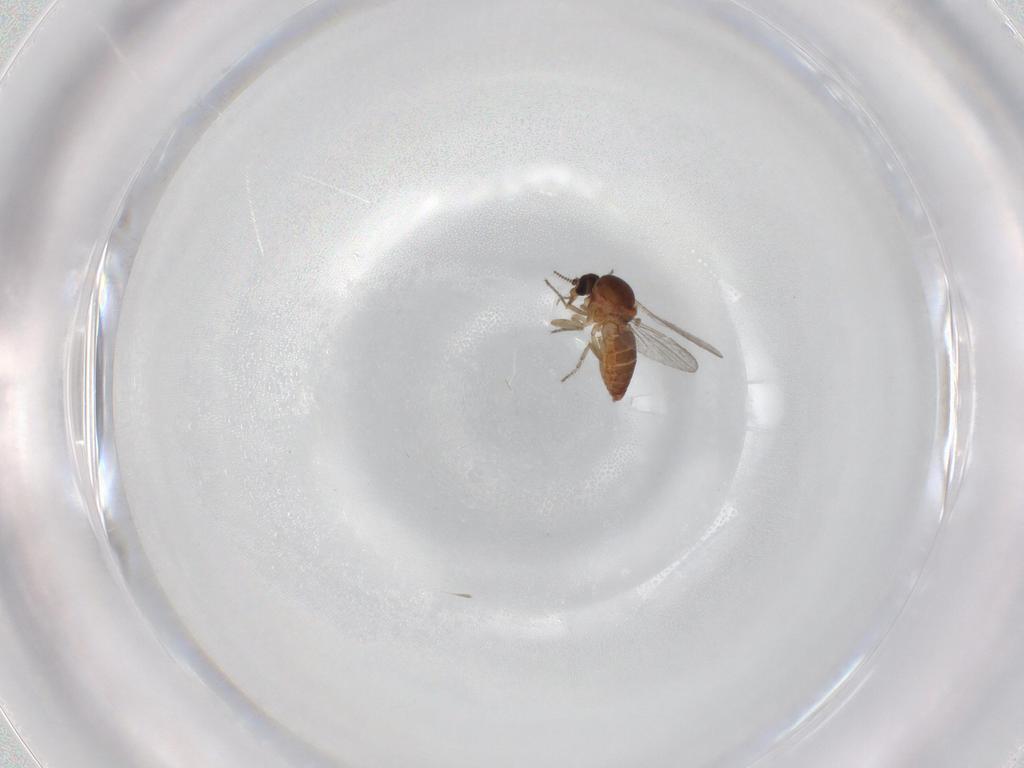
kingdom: Animalia
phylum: Arthropoda
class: Insecta
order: Diptera
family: Ceratopogonidae
